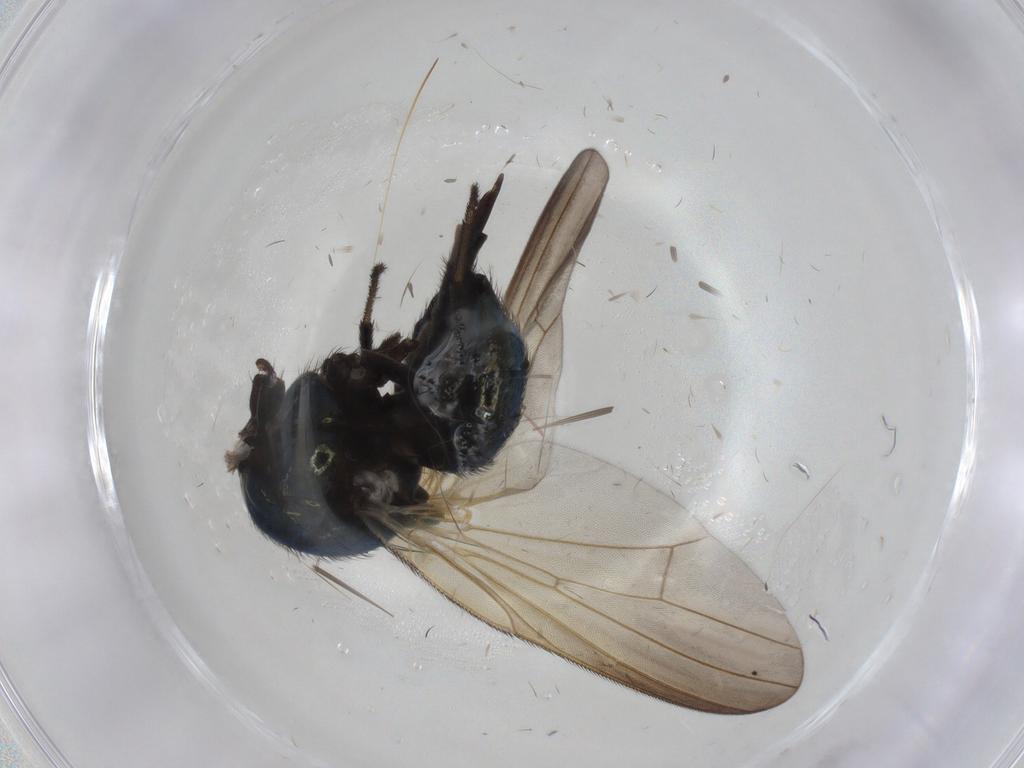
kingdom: Animalia
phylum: Arthropoda
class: Insecta
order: Diptera
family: Lonchaeidae
